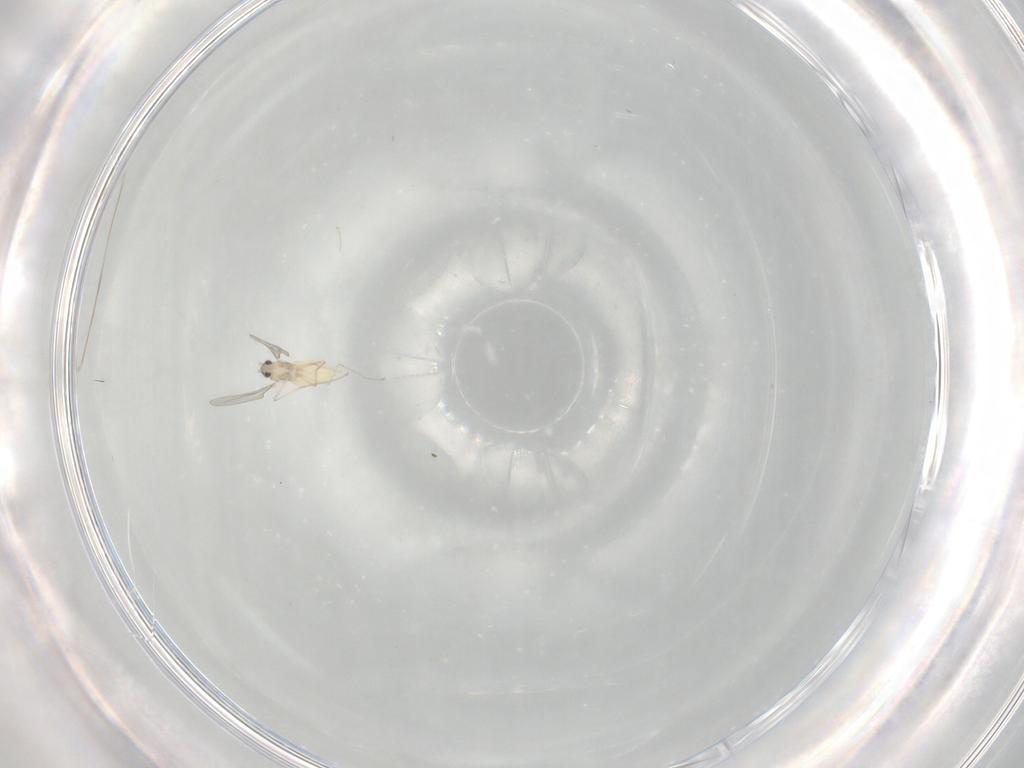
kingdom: Animalia
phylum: Arthropoda
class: Insecta
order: Diptera
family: Cecidomyiidae
